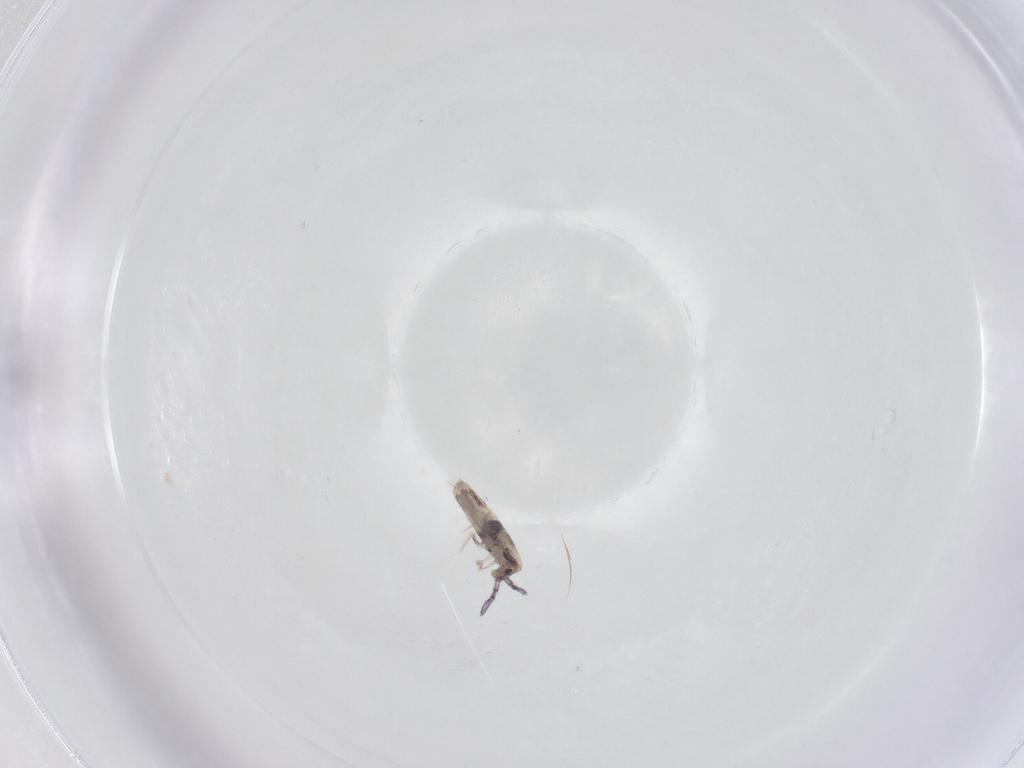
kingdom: Animalia
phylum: Arthropoda
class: Collembola
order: Entomobryomorpha
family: Entomobryidae
